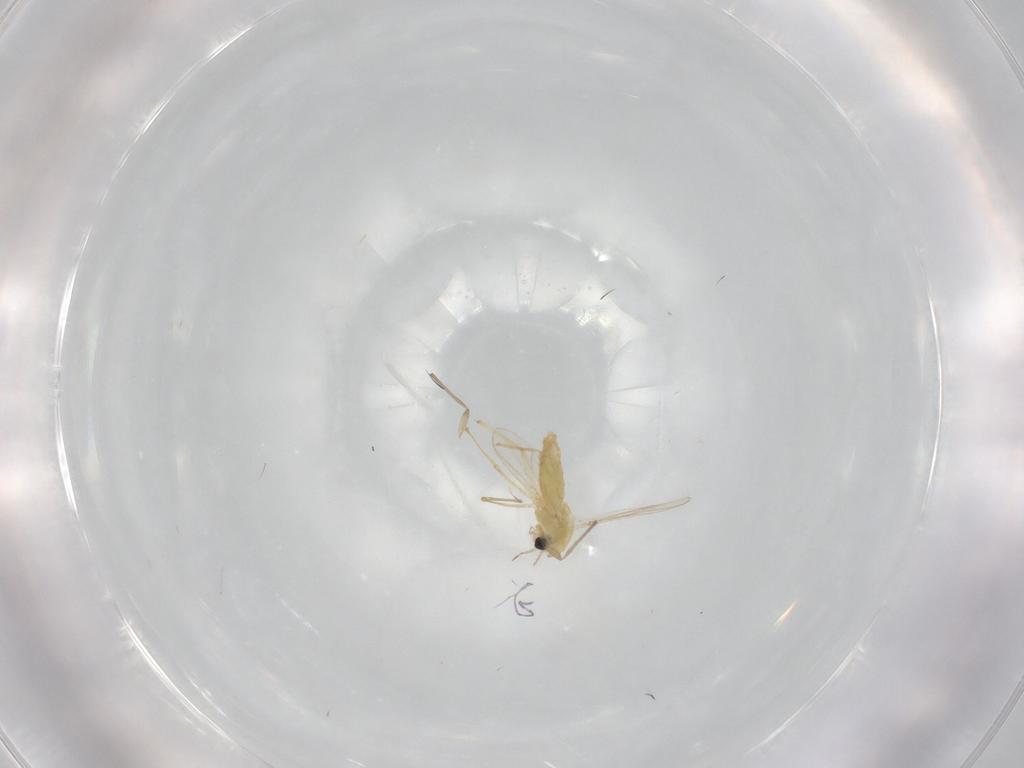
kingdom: Animalia
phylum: Arthropoda
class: Insecta
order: Diptera
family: Chironomidae
